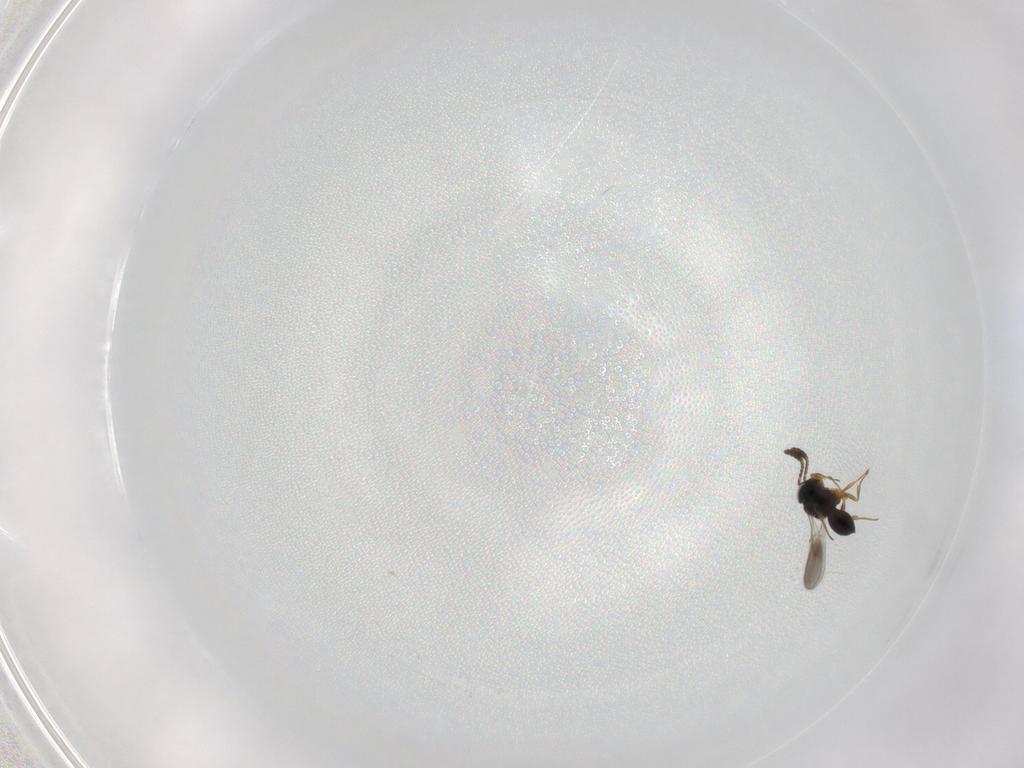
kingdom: Animalia
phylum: Arthropoda
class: Insecta
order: Hymenoptera
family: Scelionidae
